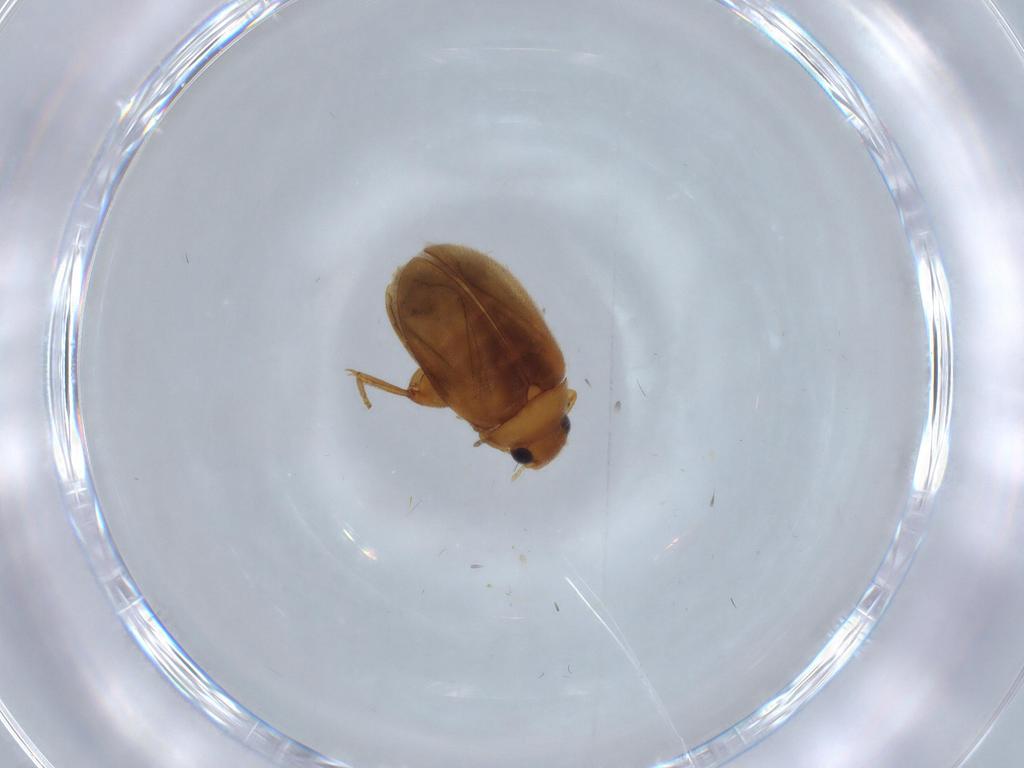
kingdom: Animalia
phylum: Arthropoda
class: Insecta
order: Coleoptera
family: Scirtidae
